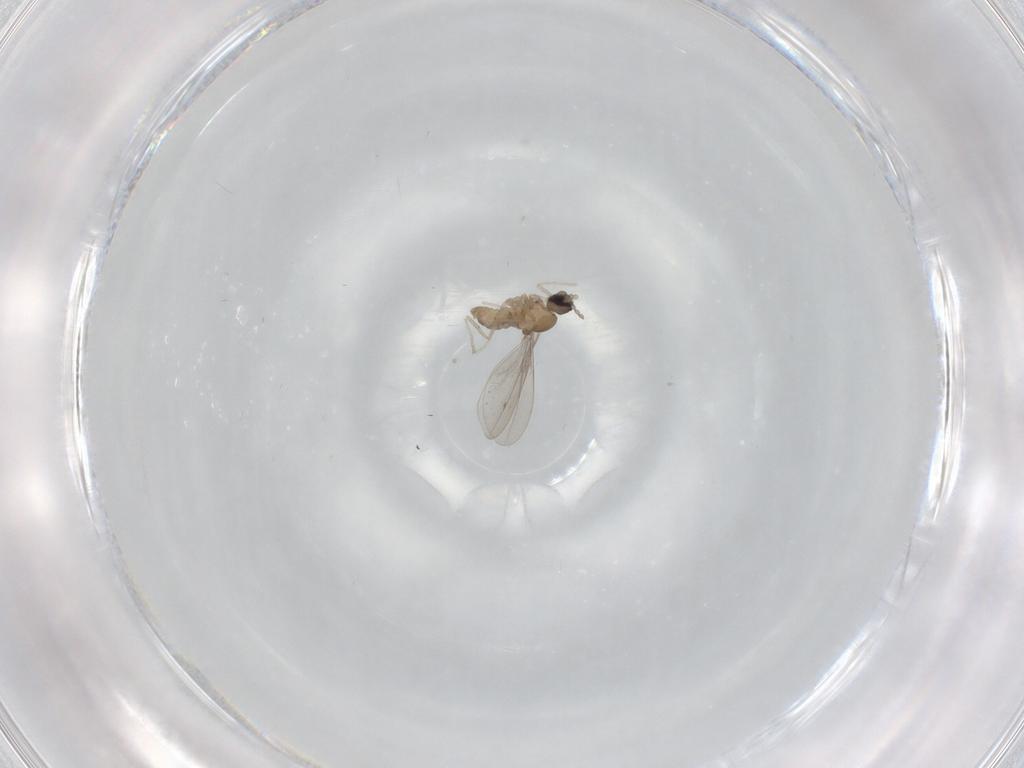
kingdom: Animalia
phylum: Arthropoda
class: Insecta
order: Diptera
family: Cecidomyiidae
